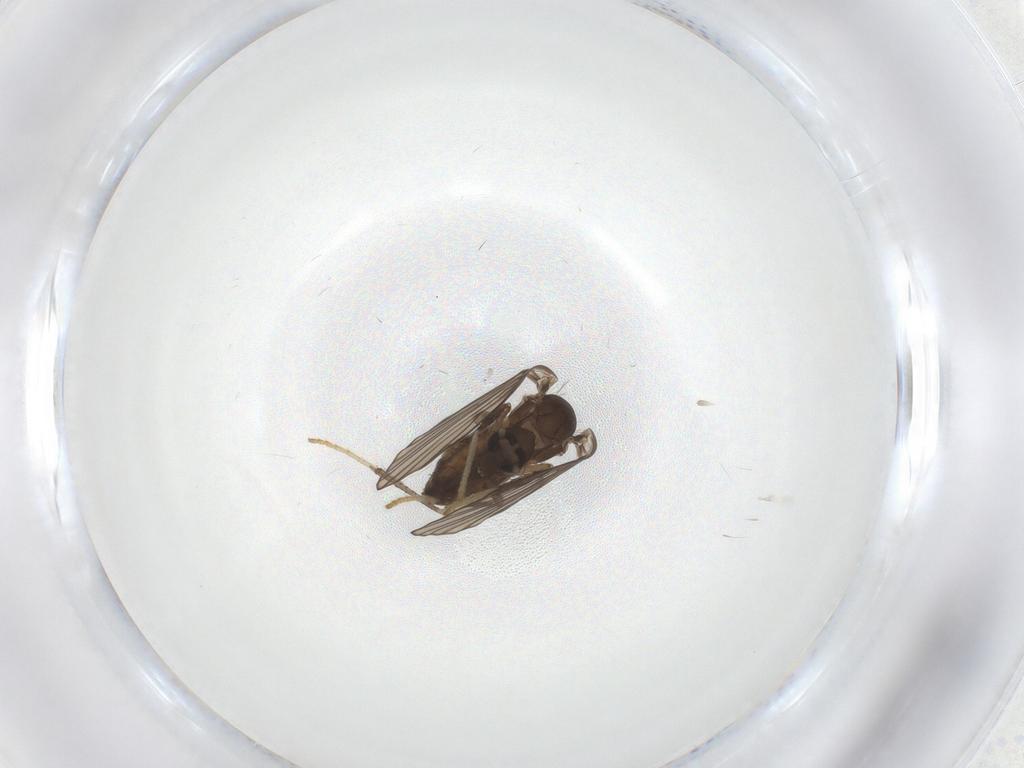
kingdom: Animalia
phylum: Arthropoda
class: Insecta
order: Diptera
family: Psychodidae
